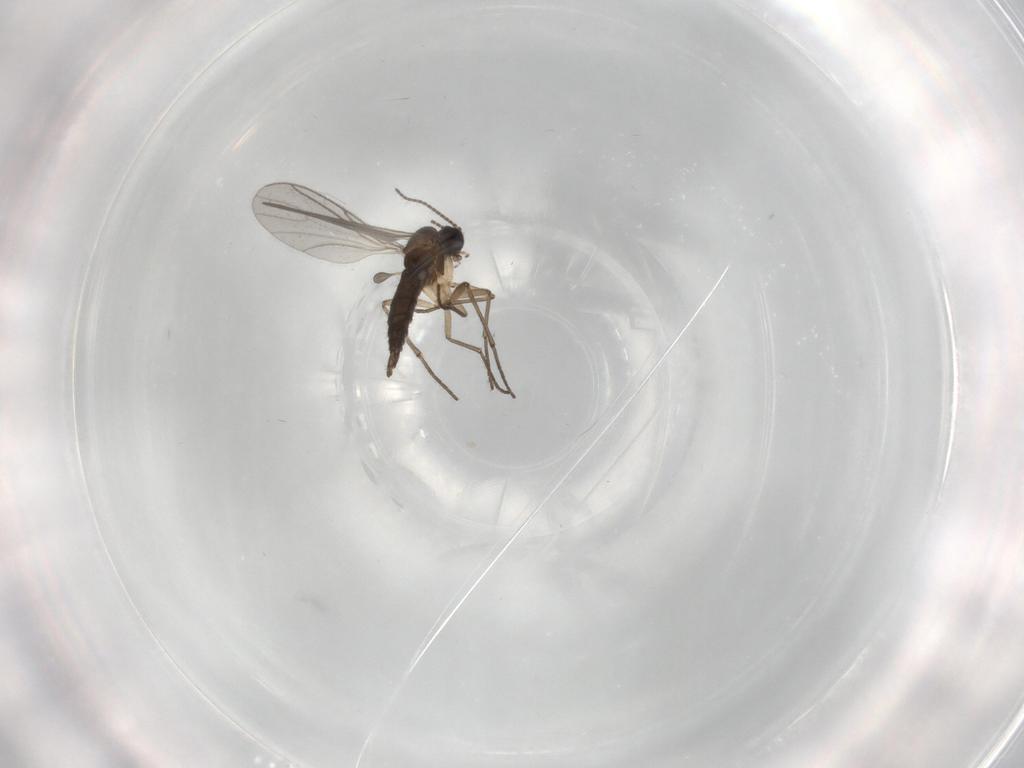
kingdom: Animalia
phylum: Arthropoda
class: Insecta
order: Diptera
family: Sciaridae
